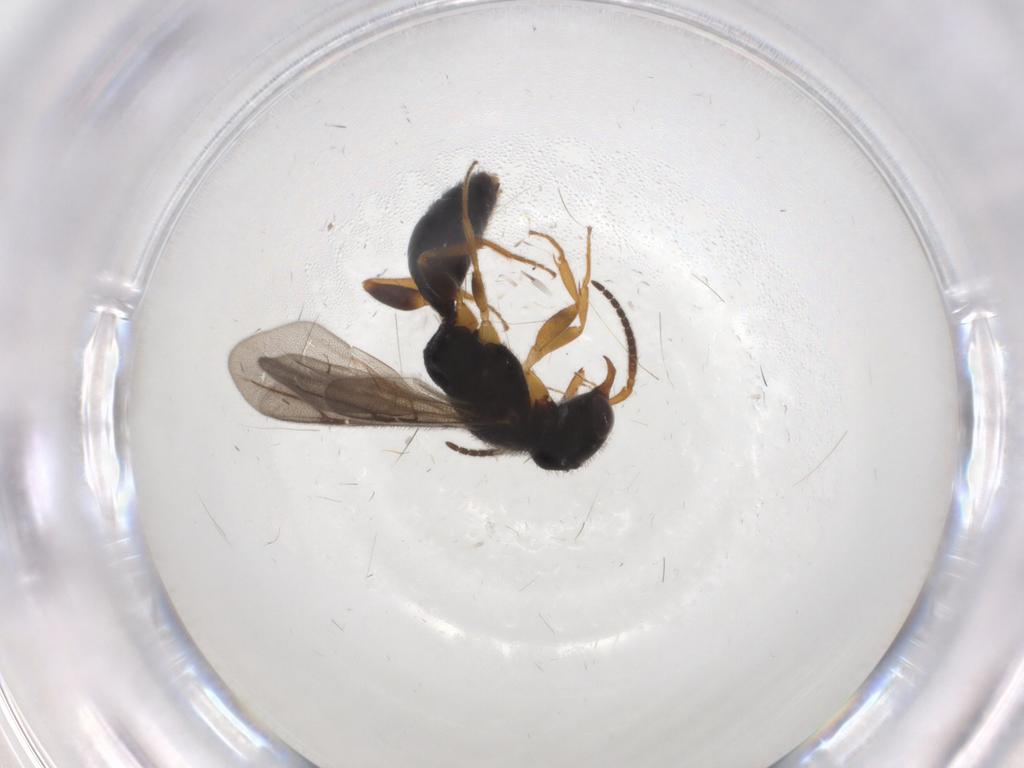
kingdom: Animalia
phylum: Arthropoda
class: Insecta
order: Hymenoptera
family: Bethylidae
